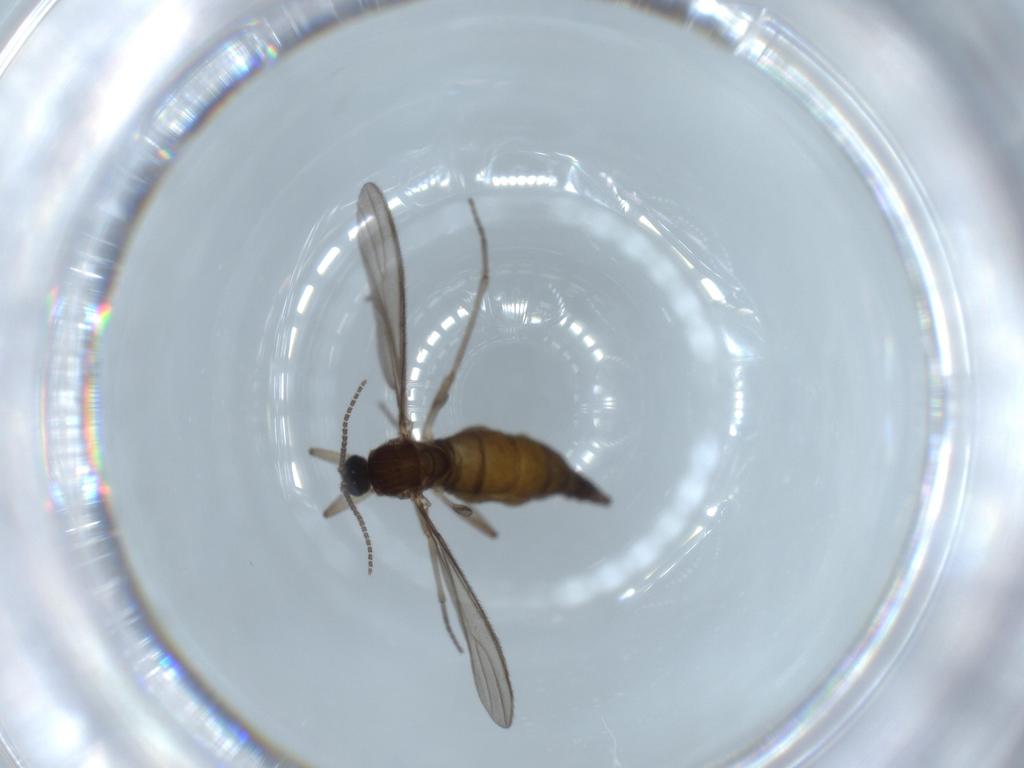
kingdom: Animalia
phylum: Arthropoda
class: Insecta
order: Diptera
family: Sciaridae
